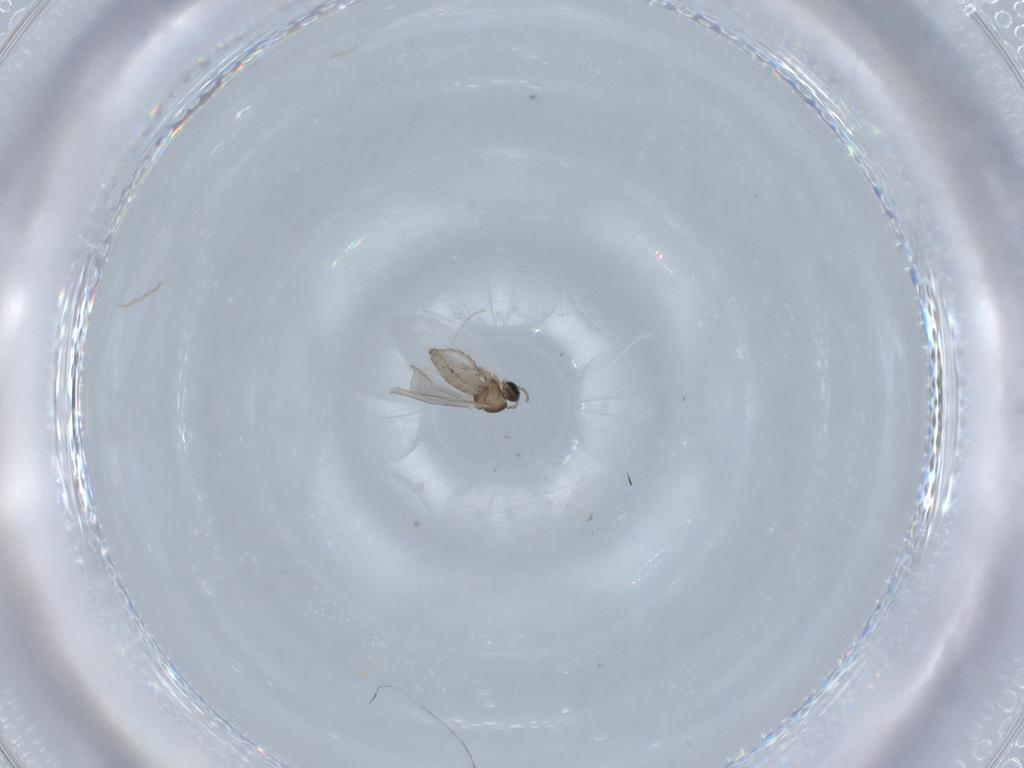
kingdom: Animalia
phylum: Arthropoda
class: Insecta
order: Diptera
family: Cecidomyiidae
